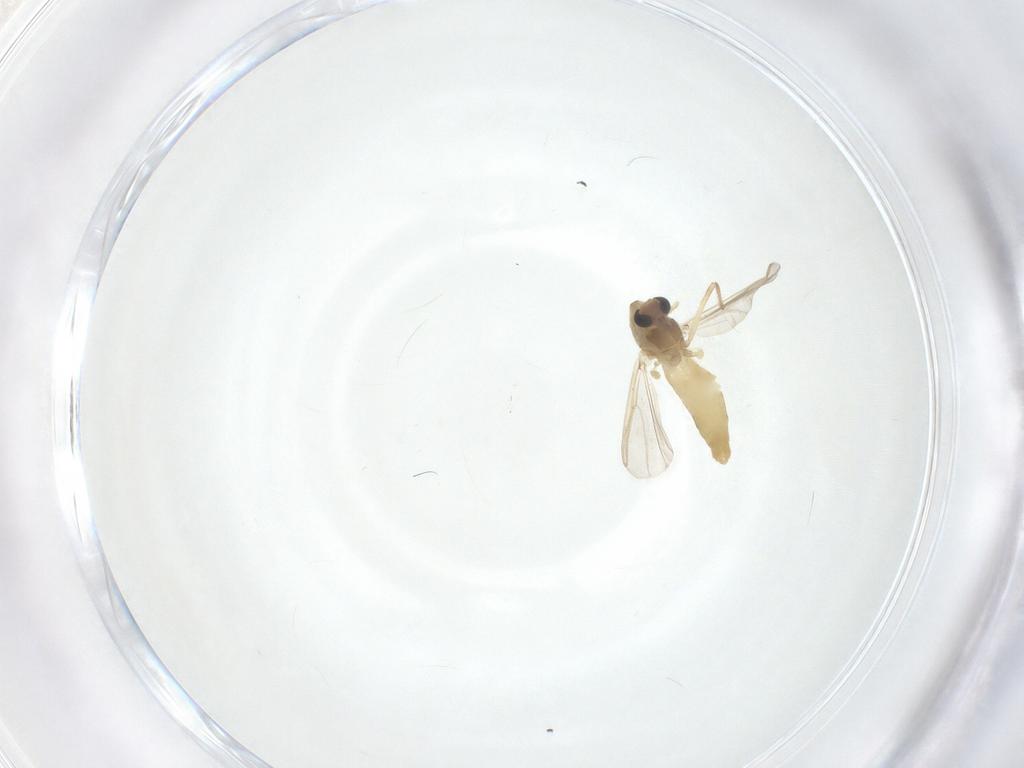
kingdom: Animalia
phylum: Arthropoda
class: Insecta
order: Diptera
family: Chironomidae
